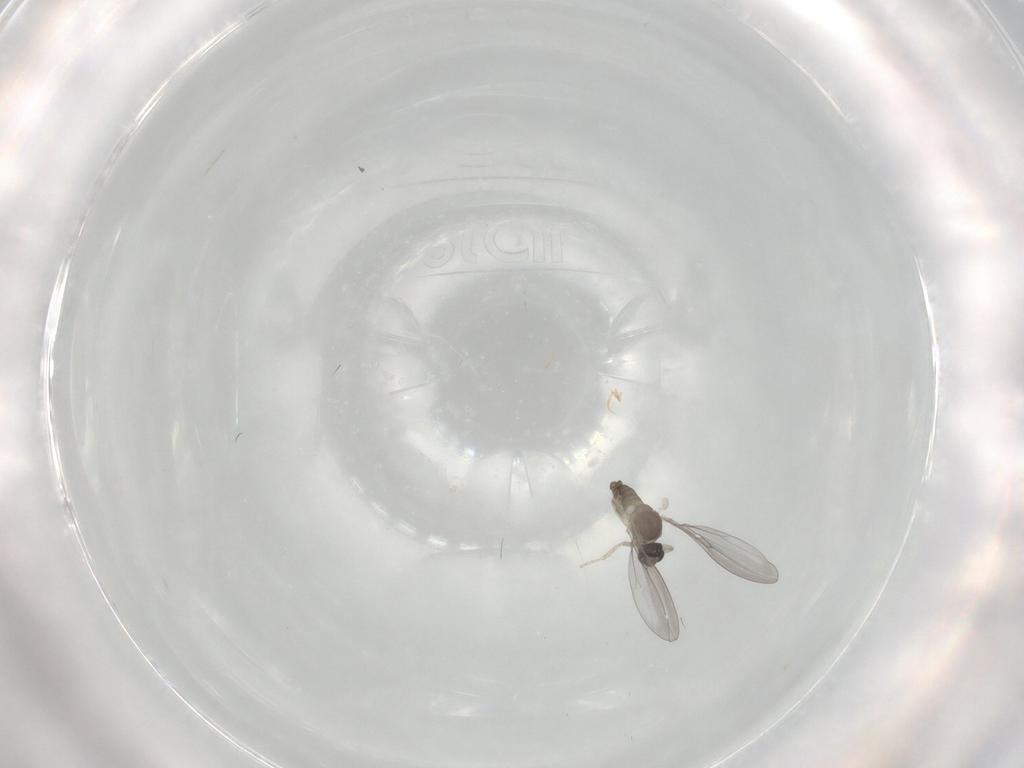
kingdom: Animalia
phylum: Arthropoda
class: Insecta
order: Diptera
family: Cecidomyiidae
